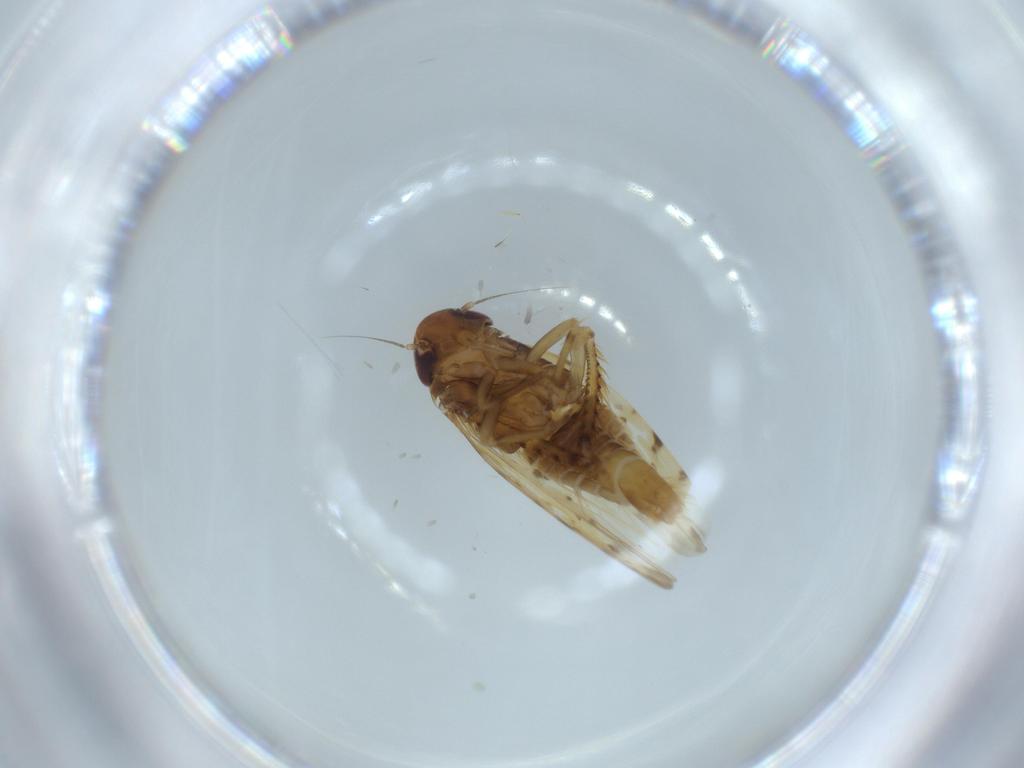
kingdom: Animalia
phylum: Arthropoda
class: Insecta
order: Hemiptera
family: Cicadellidae
